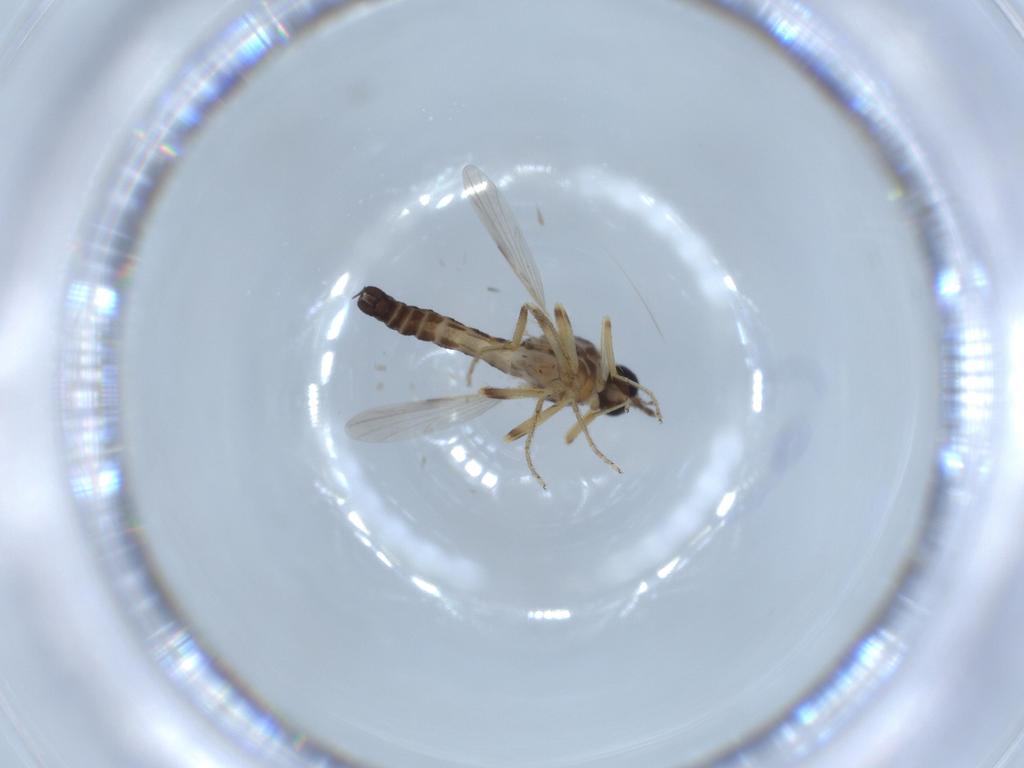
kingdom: Animalia
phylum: Arthropoda
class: Insecta
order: Diptera
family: Ceratopogonidae
